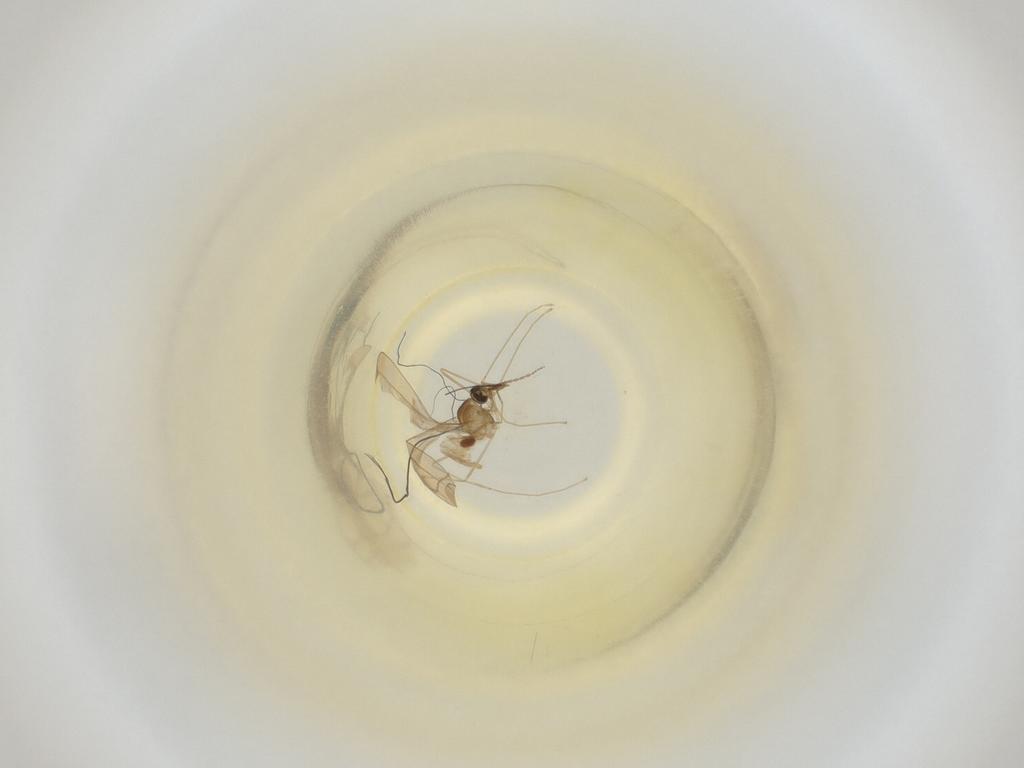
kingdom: Animalia
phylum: Arthropoda
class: Insecta
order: Diptera
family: Cecidomyiidae
